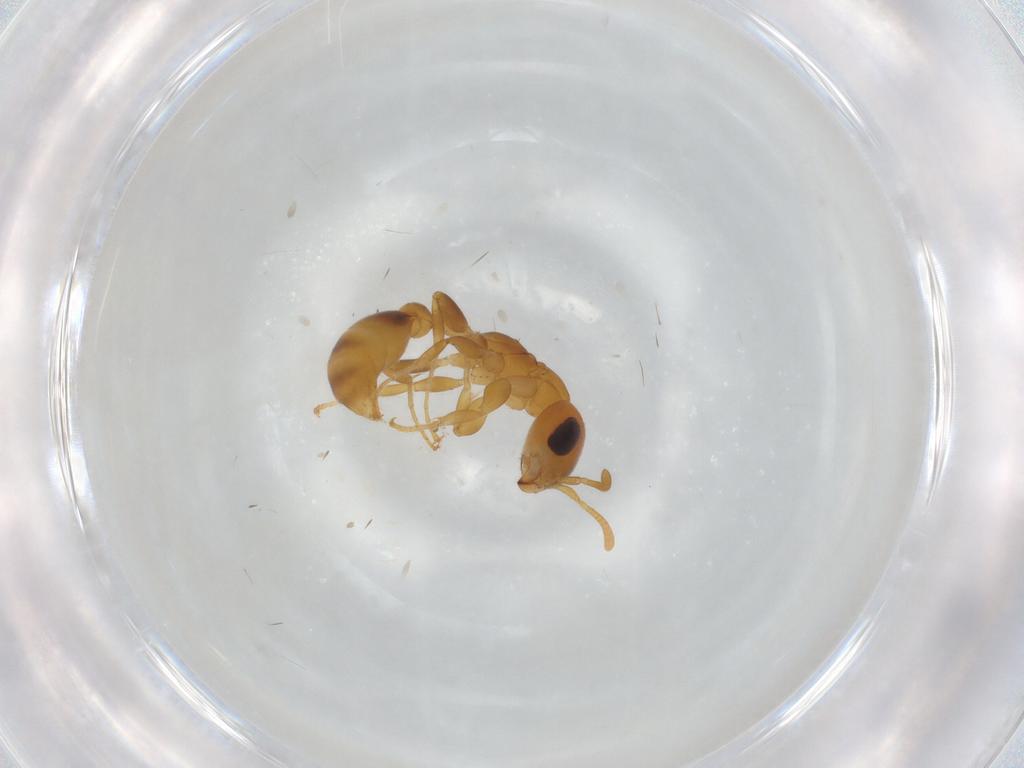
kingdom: Animalia
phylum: Arthropoda
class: Insecta
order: Hymenoptera
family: Formicidae
